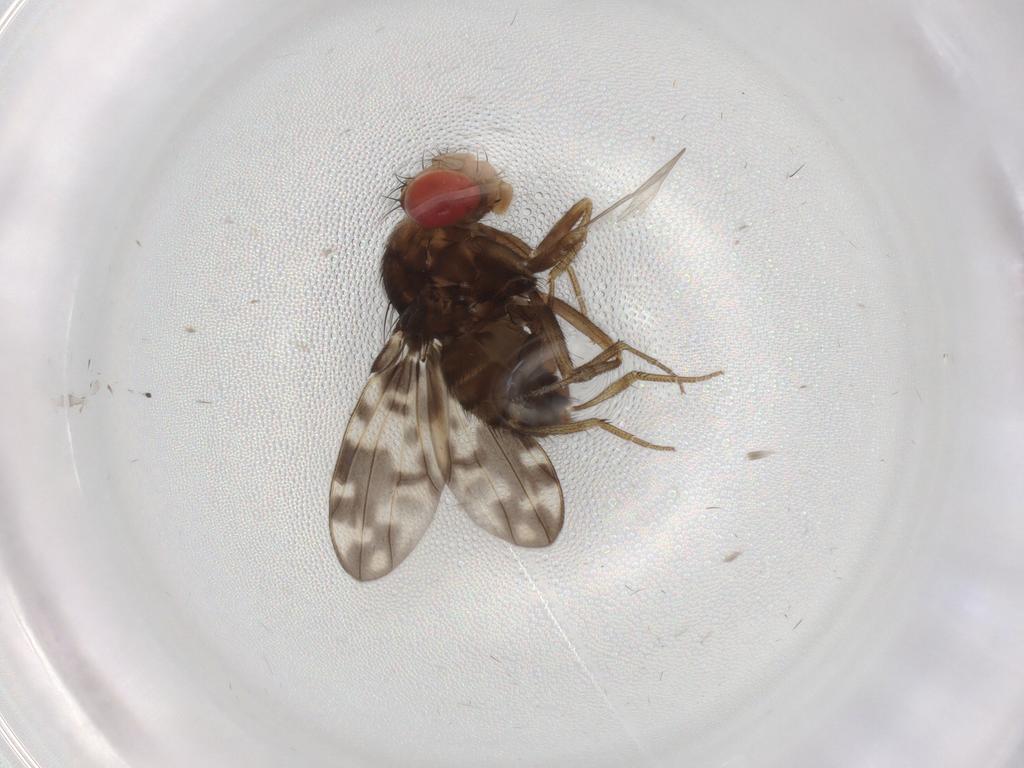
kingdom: Animalia
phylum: Arthropoda
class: Insecta
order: Diptera
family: Drosophilidae
